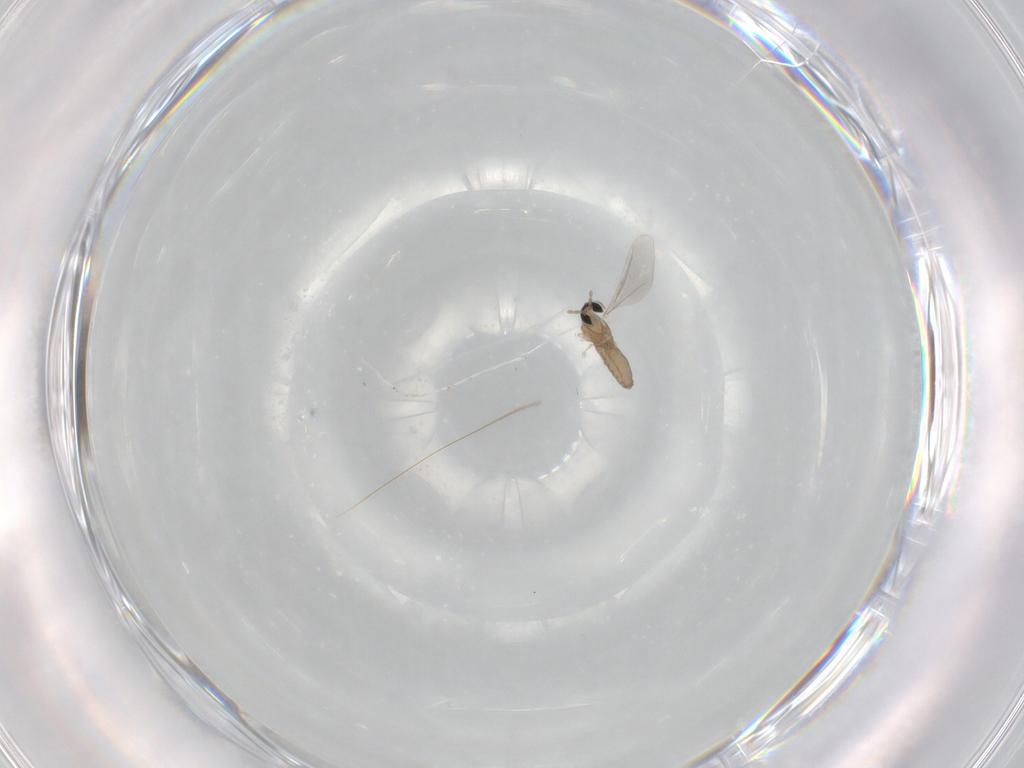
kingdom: Animalia
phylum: Arthropoda
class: Insecta
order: Diptera
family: Cecidomyiidae
